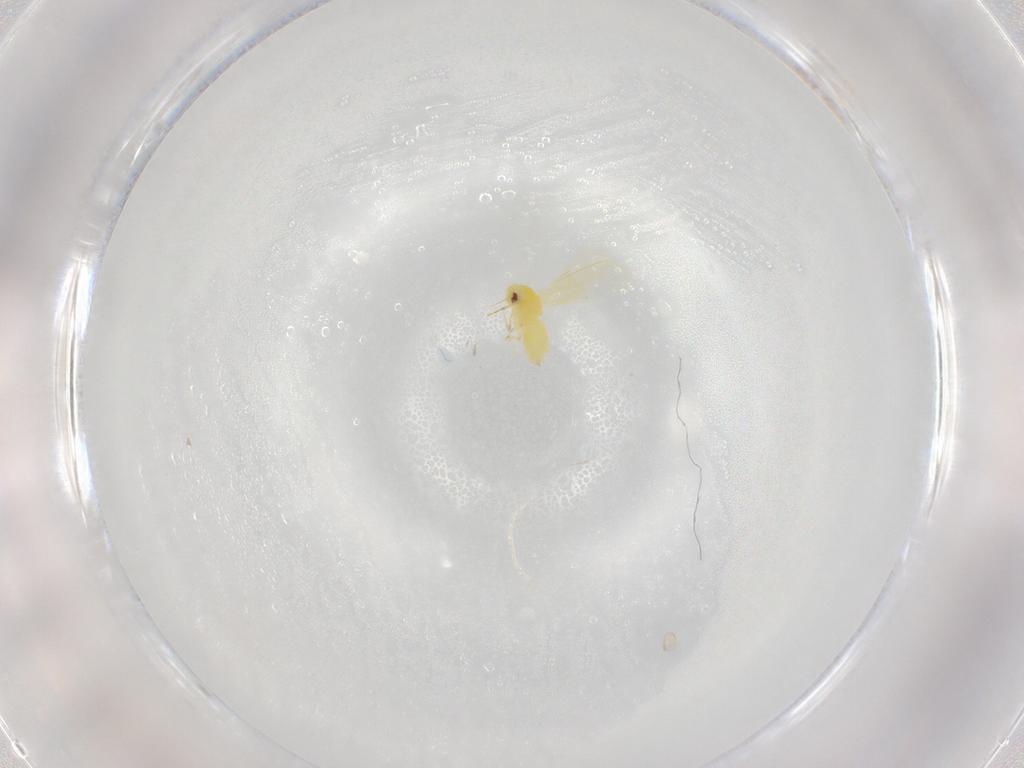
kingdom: Animalia
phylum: Arthropoda
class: Insecta
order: Hemiptera
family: Aleyrodidae
